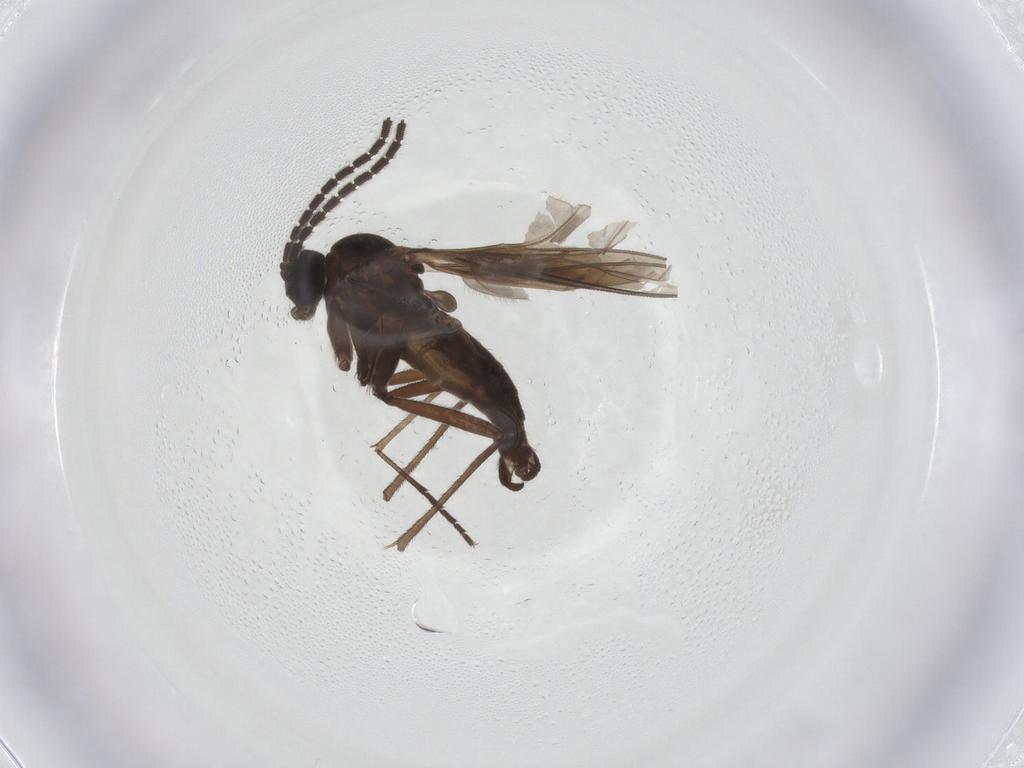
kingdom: Animalia
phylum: Arthropoda
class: Insecta
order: Diptera
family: Sciaridae
